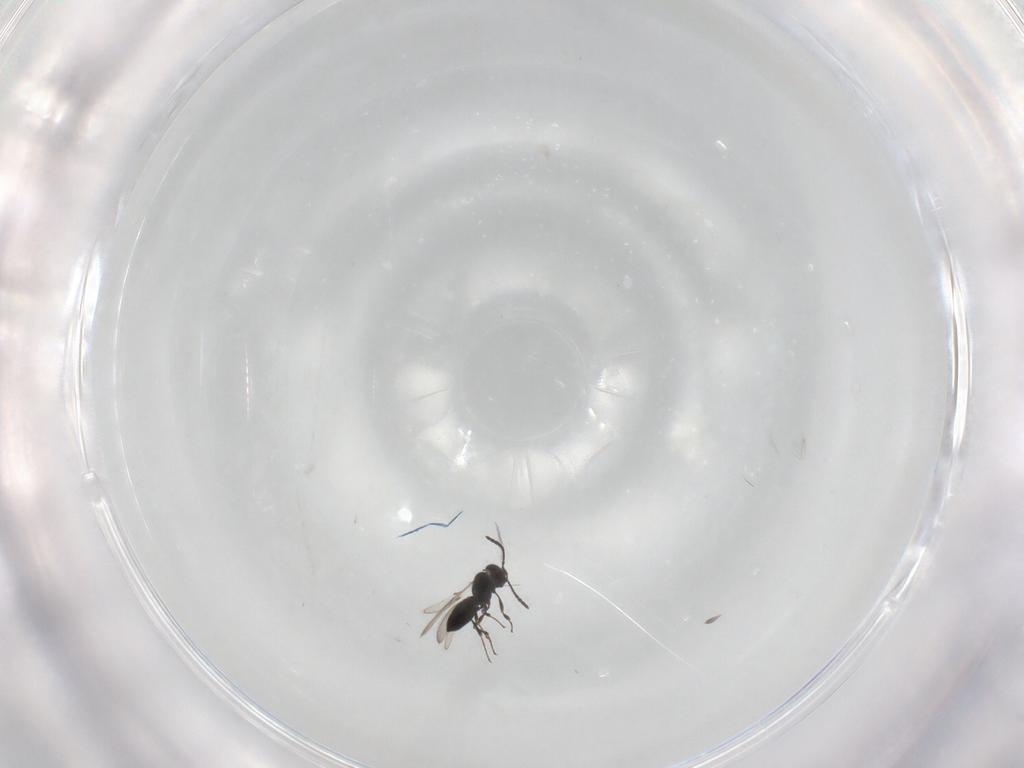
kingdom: Animalia
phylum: Arthropoda
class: Insecta
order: Hymenoptera
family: Scelionidae
